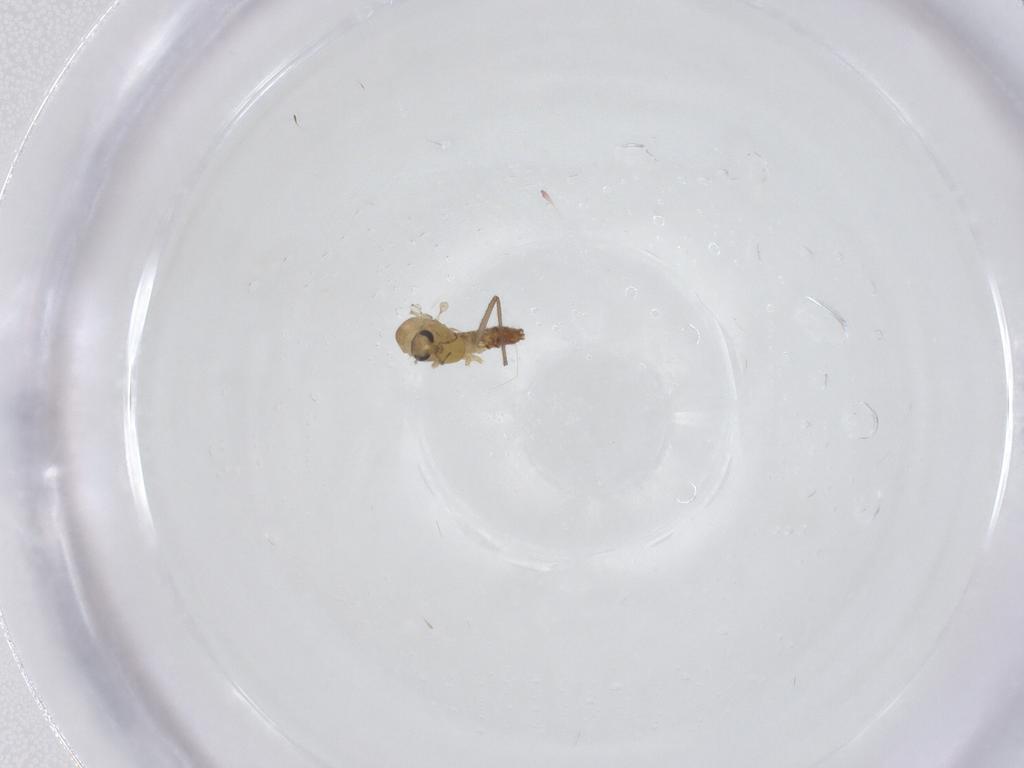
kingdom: Animalia
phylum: Arthropoda
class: Insecta
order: Diptera
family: Chironomidae
